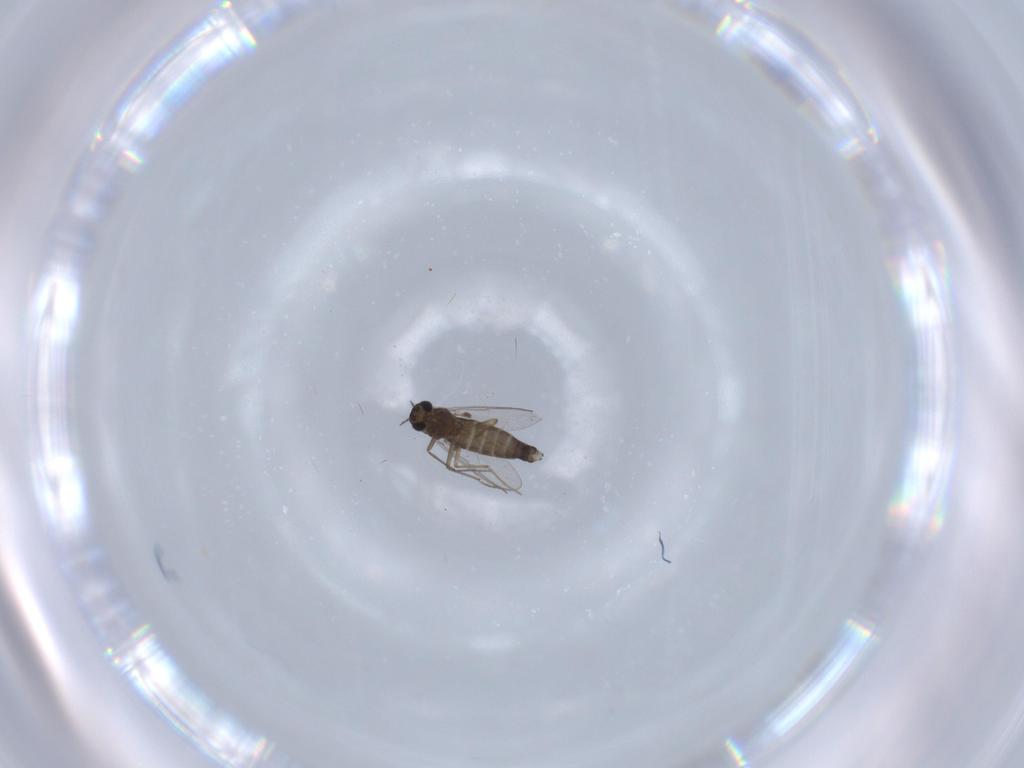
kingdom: Animalia
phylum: Arthropoda
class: Insecta
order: Diptera
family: Chironomidae
